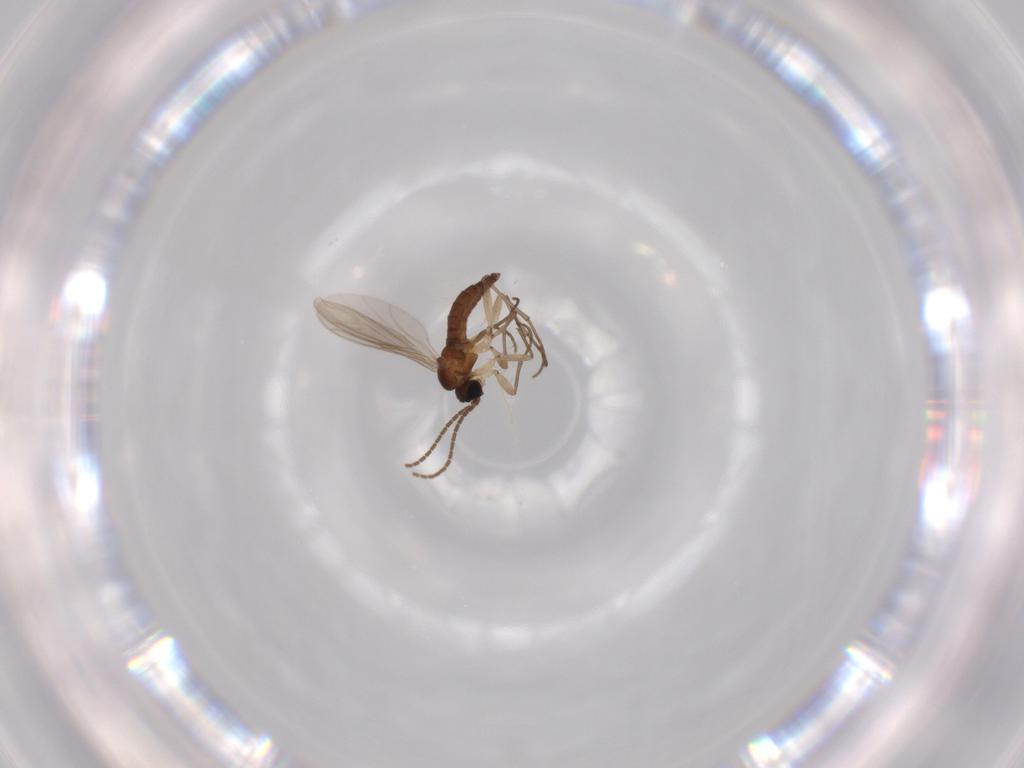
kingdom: Animalia
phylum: Arthropoda
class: Insecta
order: Diptera
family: Sciaridae
